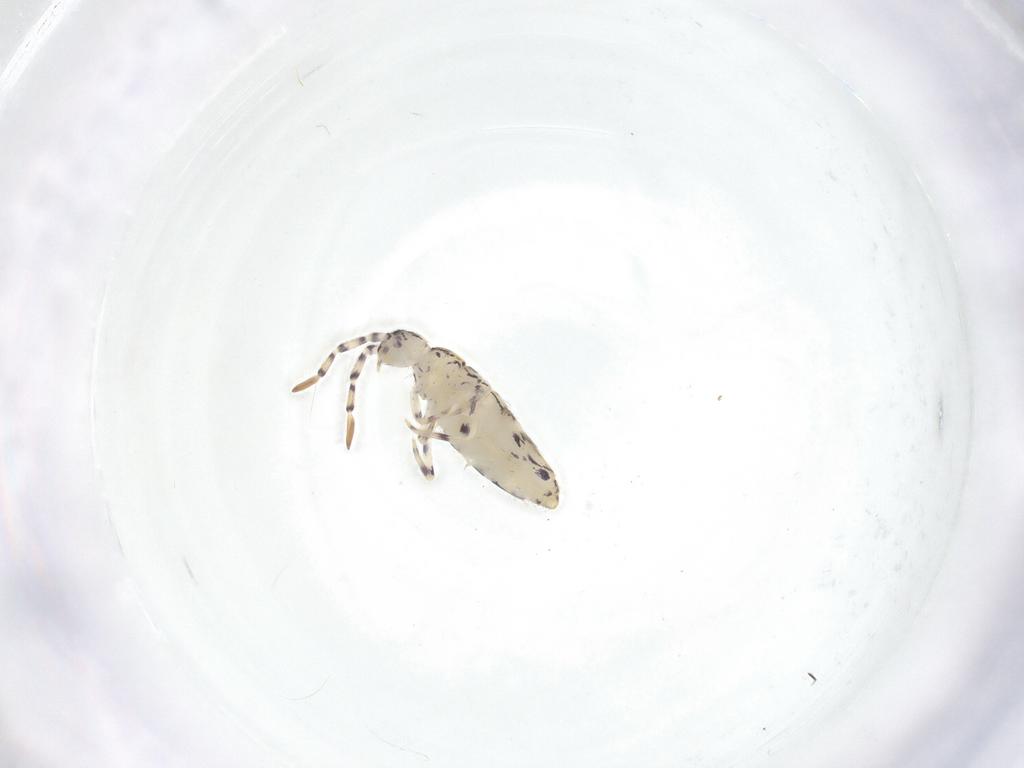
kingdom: Animalia
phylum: Arthropoda
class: Collembola
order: Entomobryomorpha
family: Entomobryidae
